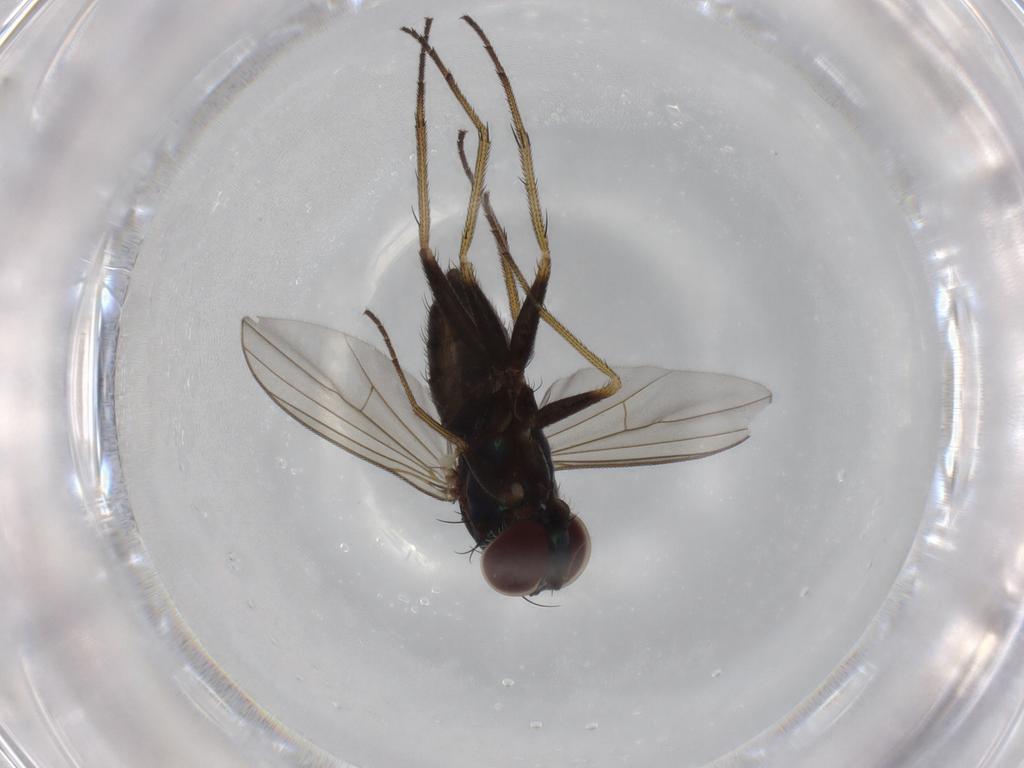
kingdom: Animalia
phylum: Arthropoda
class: Insecta
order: Diptera
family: Dolichopodidae
